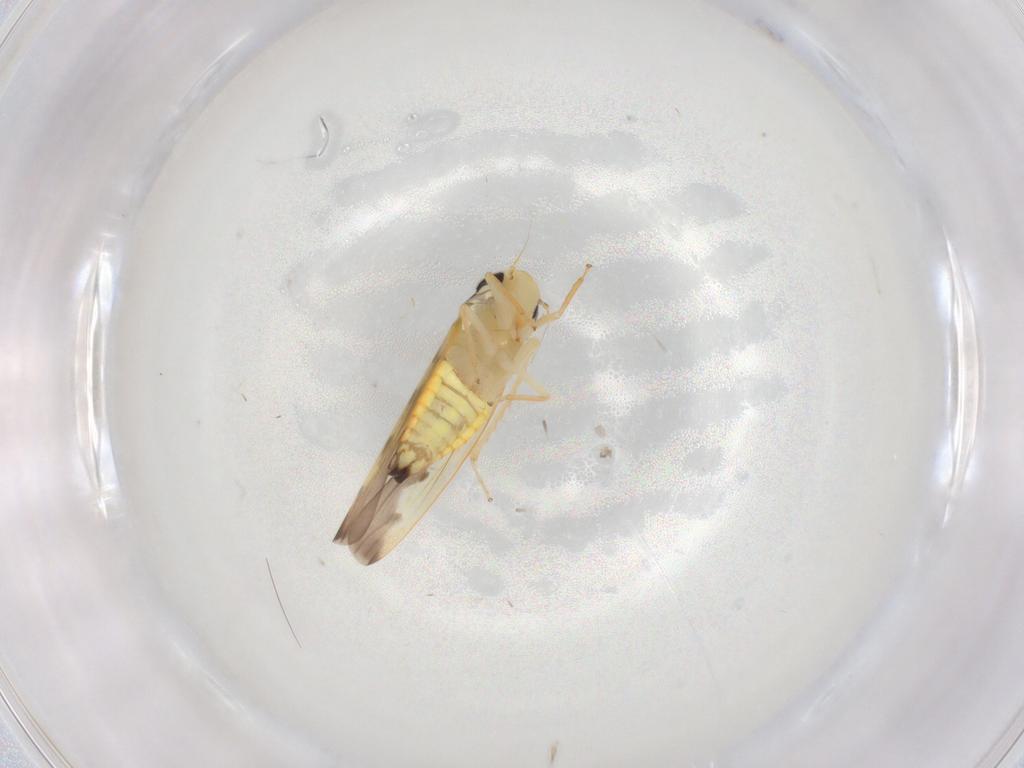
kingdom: Animalia
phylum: Arthropoda
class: Insecta
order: Hemiptera
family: Cicadellidae
